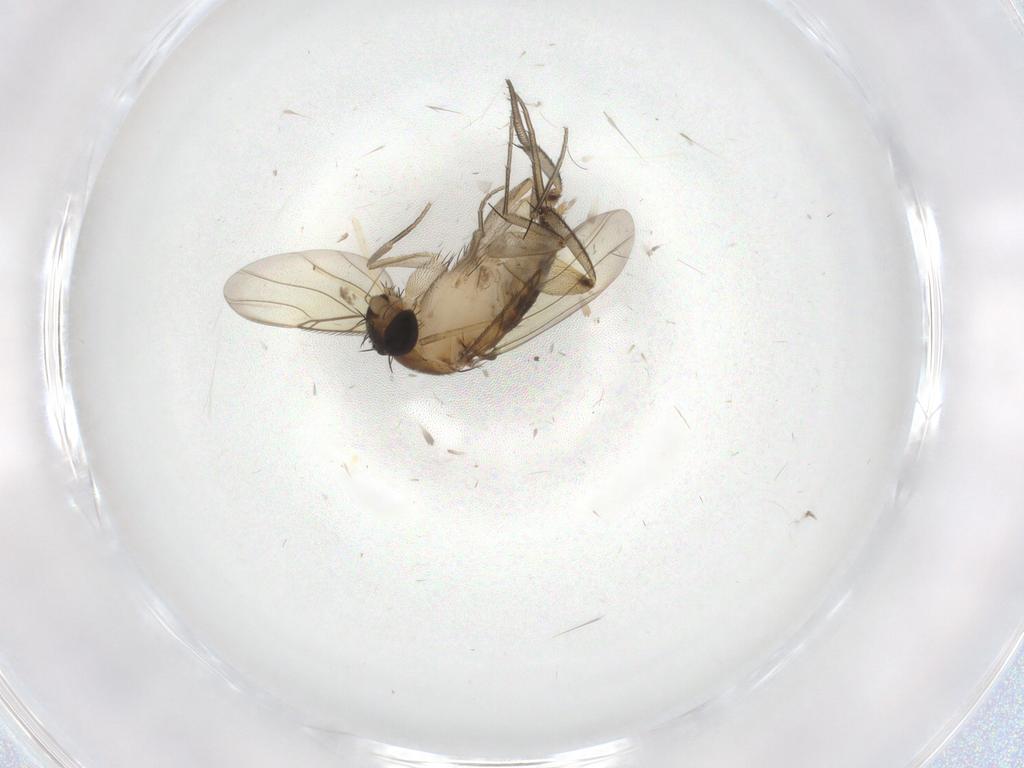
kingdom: Animalia
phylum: Arthropoda
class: Insecta
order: Diptera
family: Phoridae
